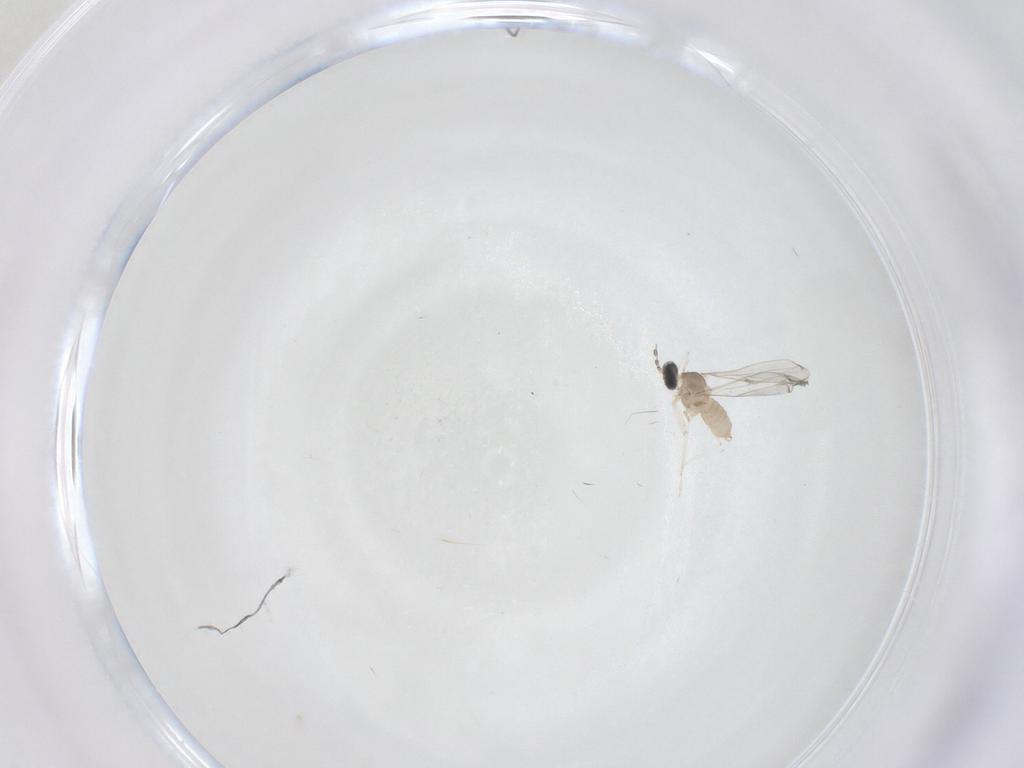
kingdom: Animalia
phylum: Arthropoda
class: Insecta
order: Diptera
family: Cecidomyiidae
